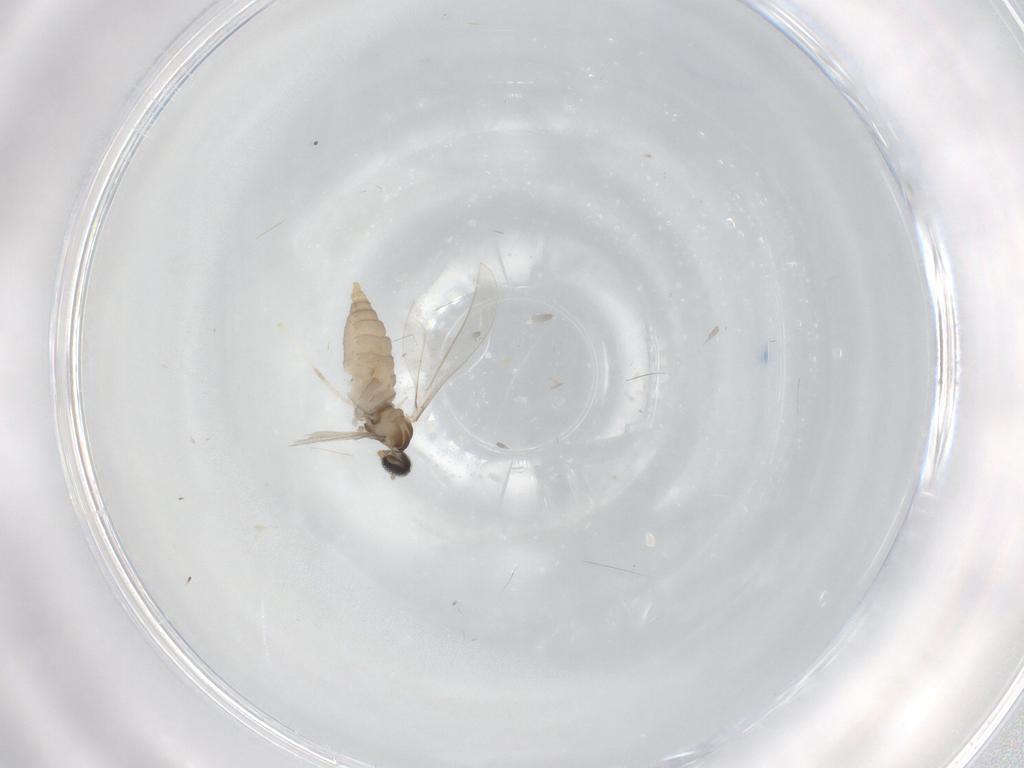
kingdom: Animalia
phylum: Arthropoda
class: Insecta
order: Diptera
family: Cecidomyiidae
